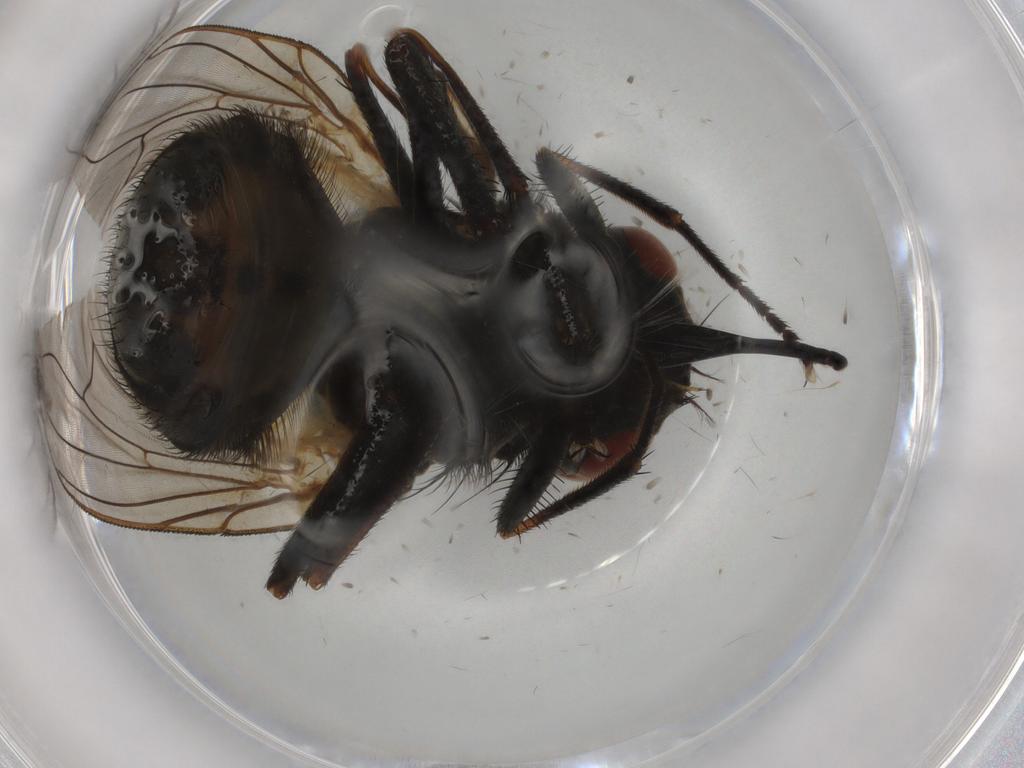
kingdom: Animalia
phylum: Arthropoda
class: Insecta
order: Diptera
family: Muscidae
